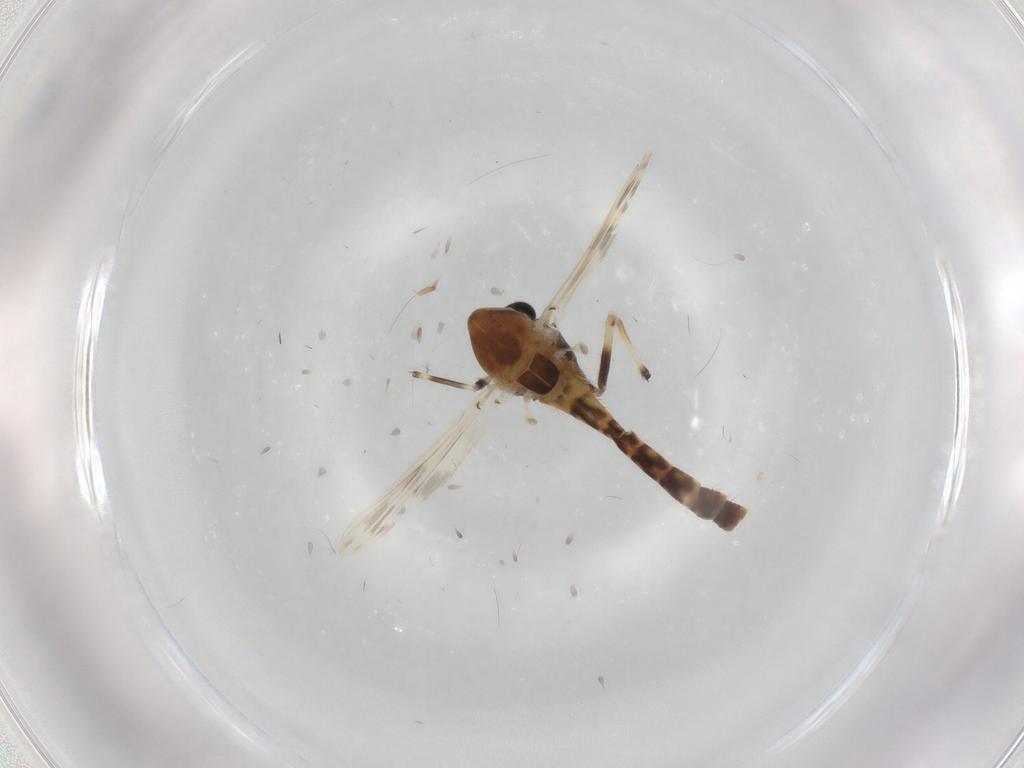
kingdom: Animalia
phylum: Arthropoda
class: Insecta
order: Diptera
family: Chironomidae
